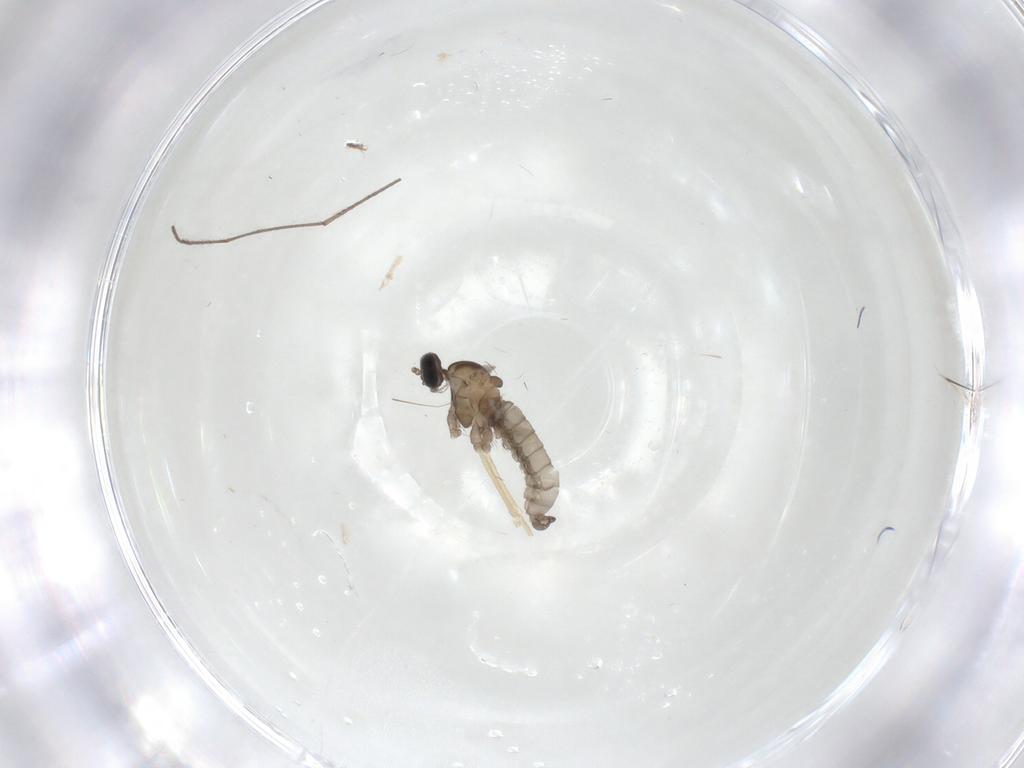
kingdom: Animalia
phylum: Arthropoda
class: Insecta
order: Diptera
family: Cecidomyiidae
